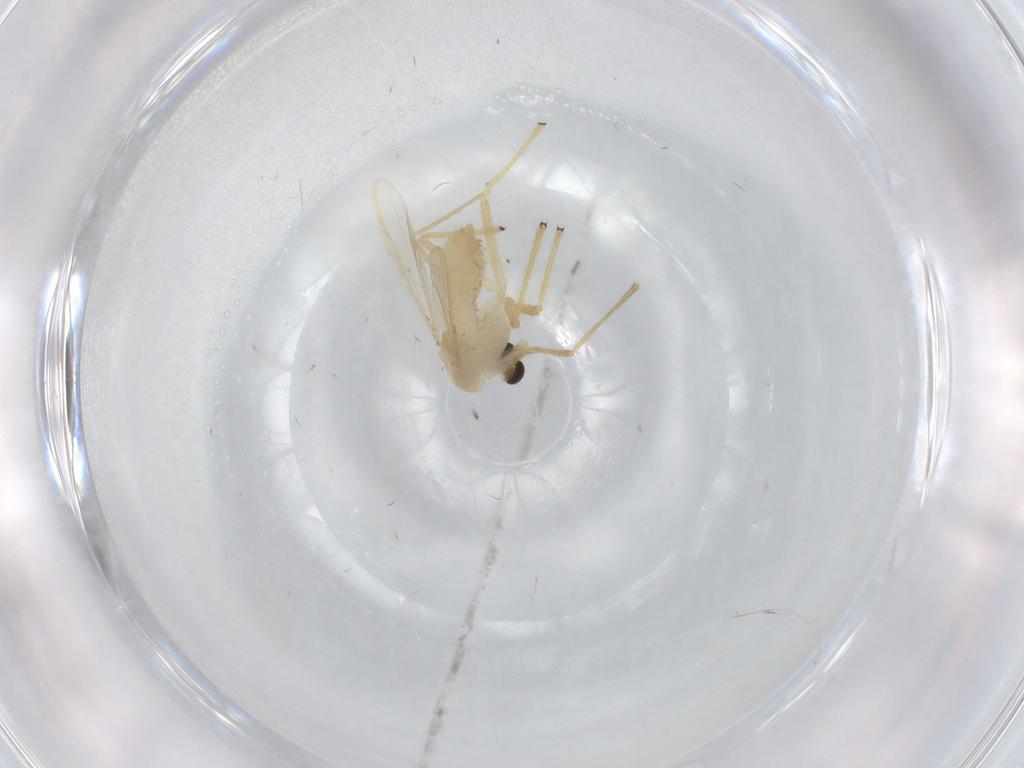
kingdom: Animalia
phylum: Arthropoda
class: Insecta
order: Diptera
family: Chironomidae
